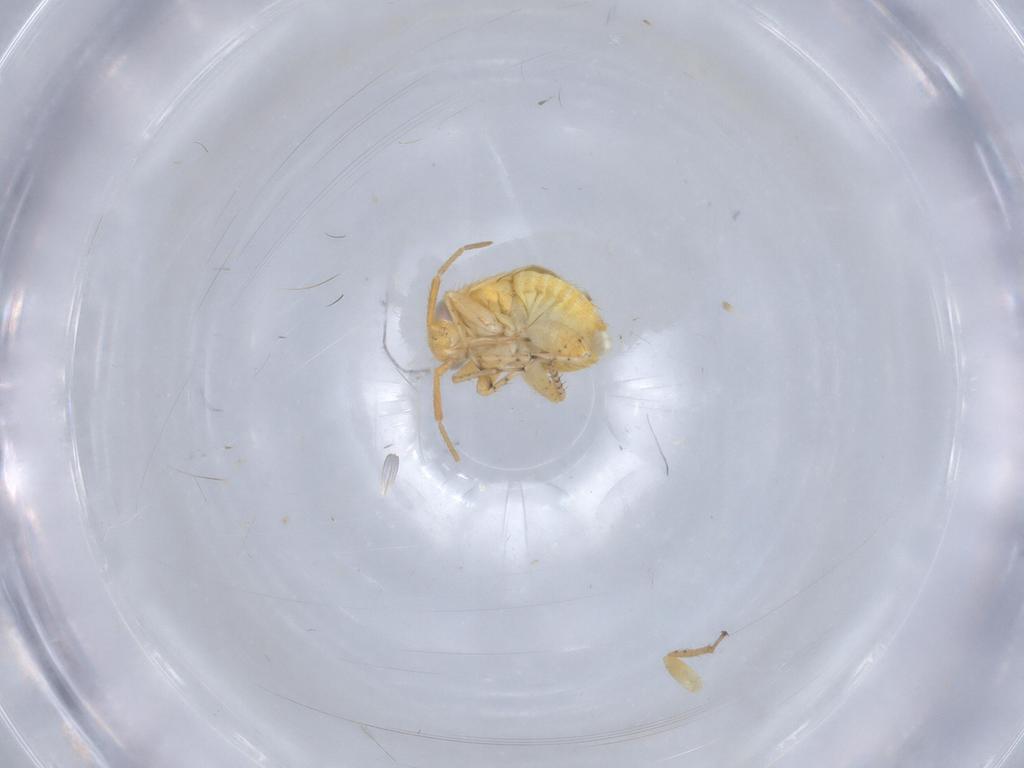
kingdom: Animalia
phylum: Arthropoda
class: Insecta
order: Hemiptera
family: Miridae
